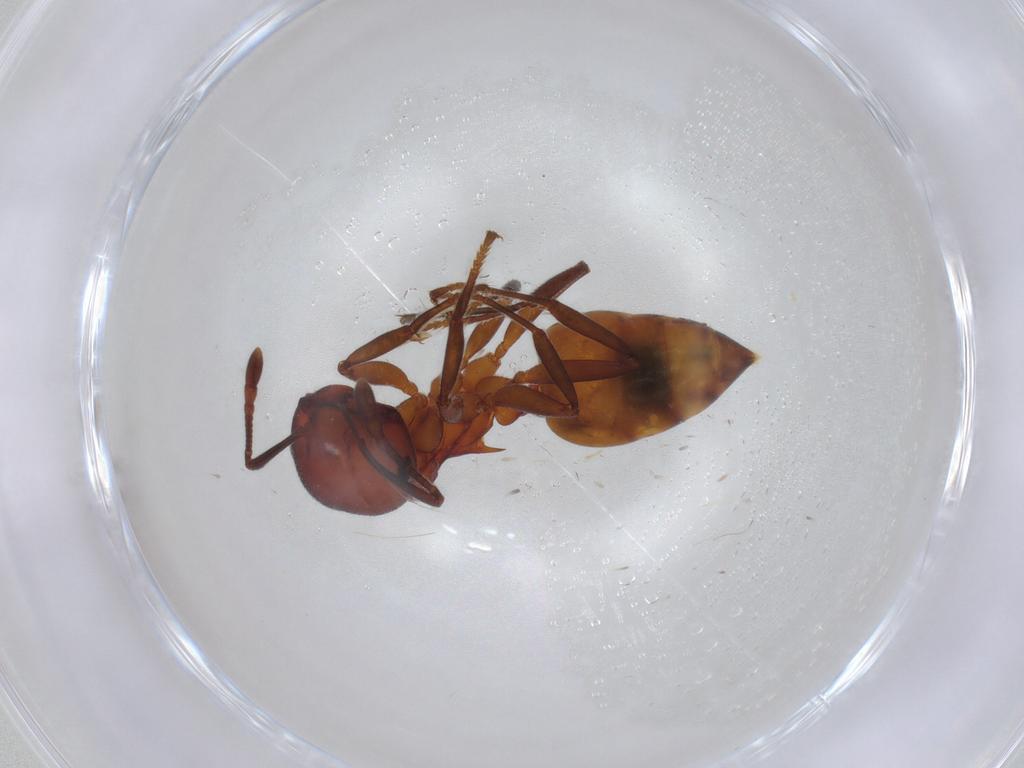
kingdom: Animalia
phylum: Arthropoda
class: Insecta
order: Hymenoptera
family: Formicidae
